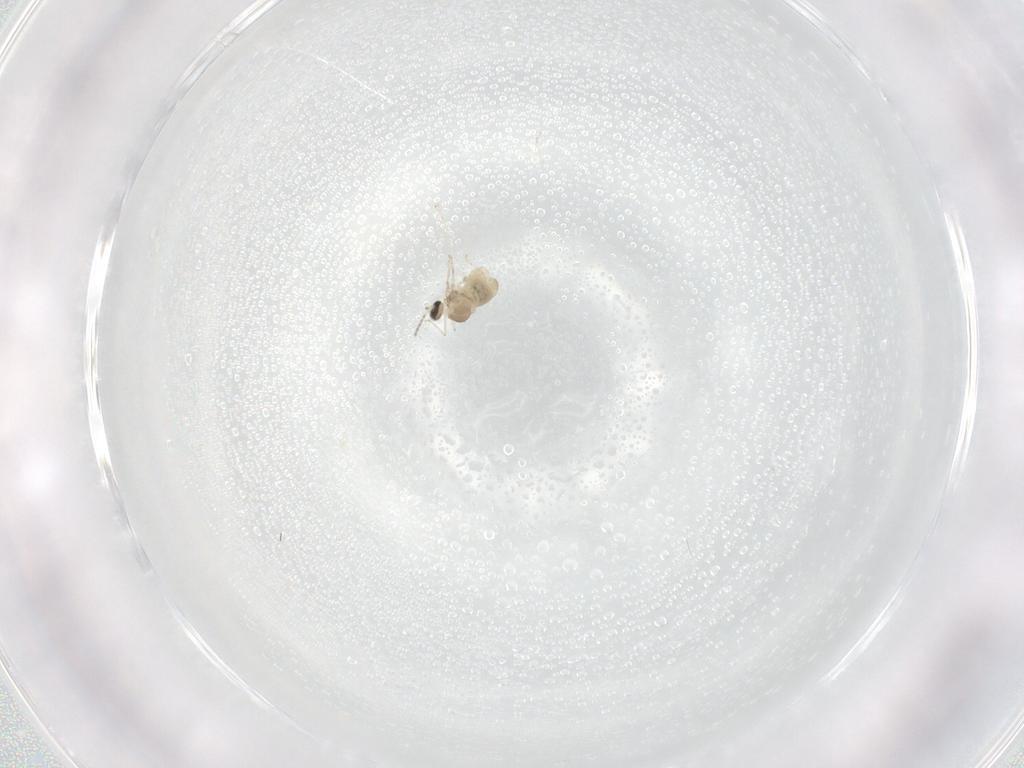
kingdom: Animalia
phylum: Arthropoda
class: Insecta
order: Diptera
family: Cecidomyiidae
